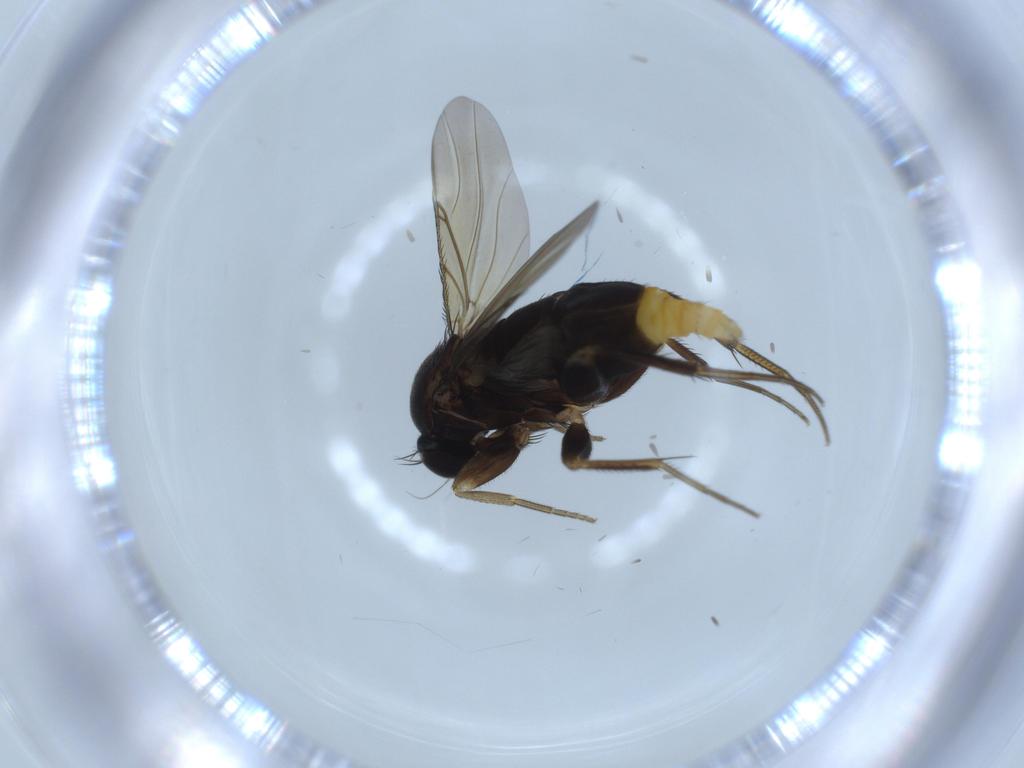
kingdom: Animalia
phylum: Arthropoda
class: Insecta
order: Diptera
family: Phoridae
